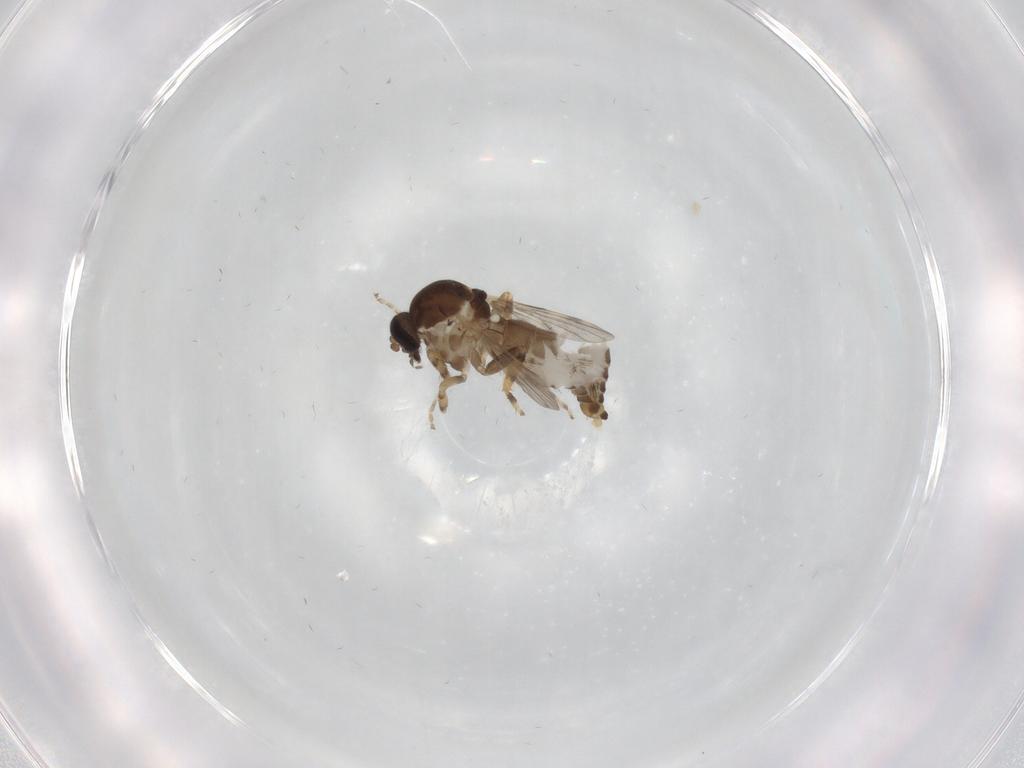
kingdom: Animalia
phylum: Arthropoda
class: Insecta
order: Diptera
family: Ceratopogonidae
